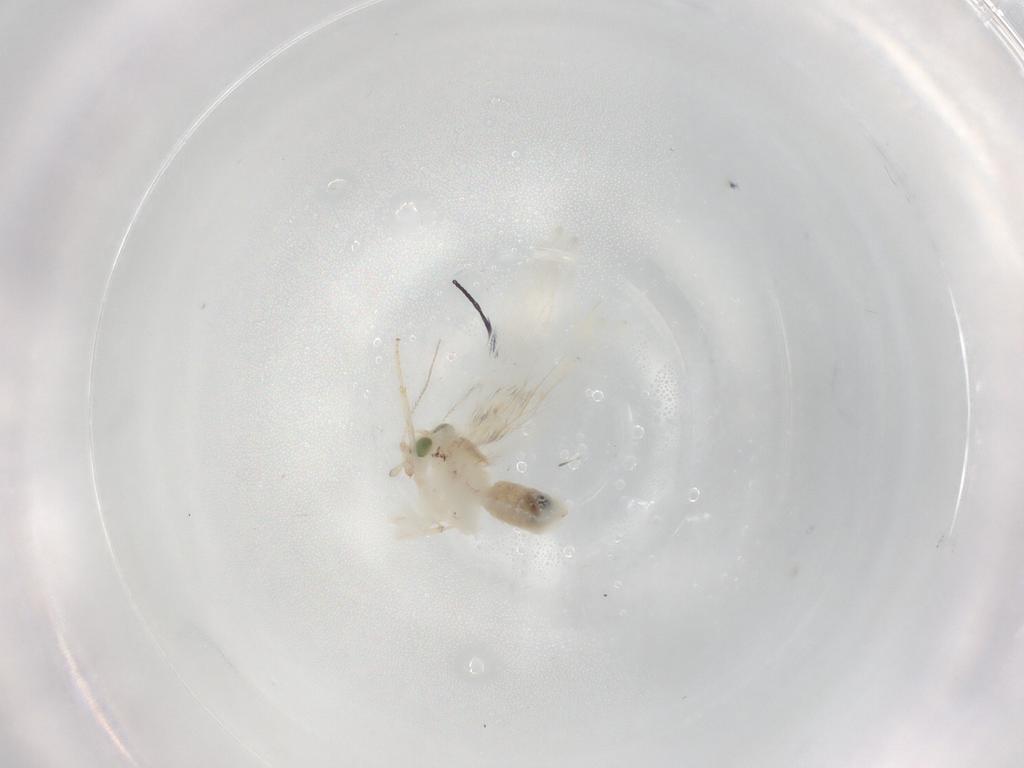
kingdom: Animalia
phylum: Arthropoda
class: Insecta
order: Psocodea
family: Lepidopsocidae
